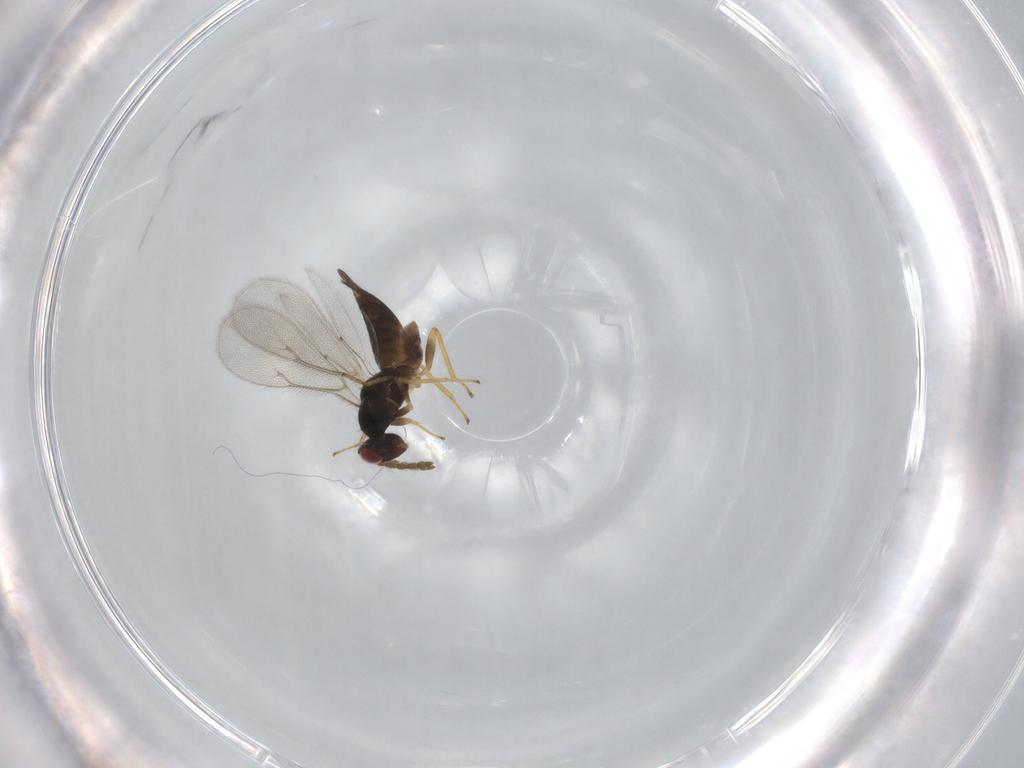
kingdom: Animalia
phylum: Arthropoda
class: Insecta
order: Hymenoptera
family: Eulophidae
